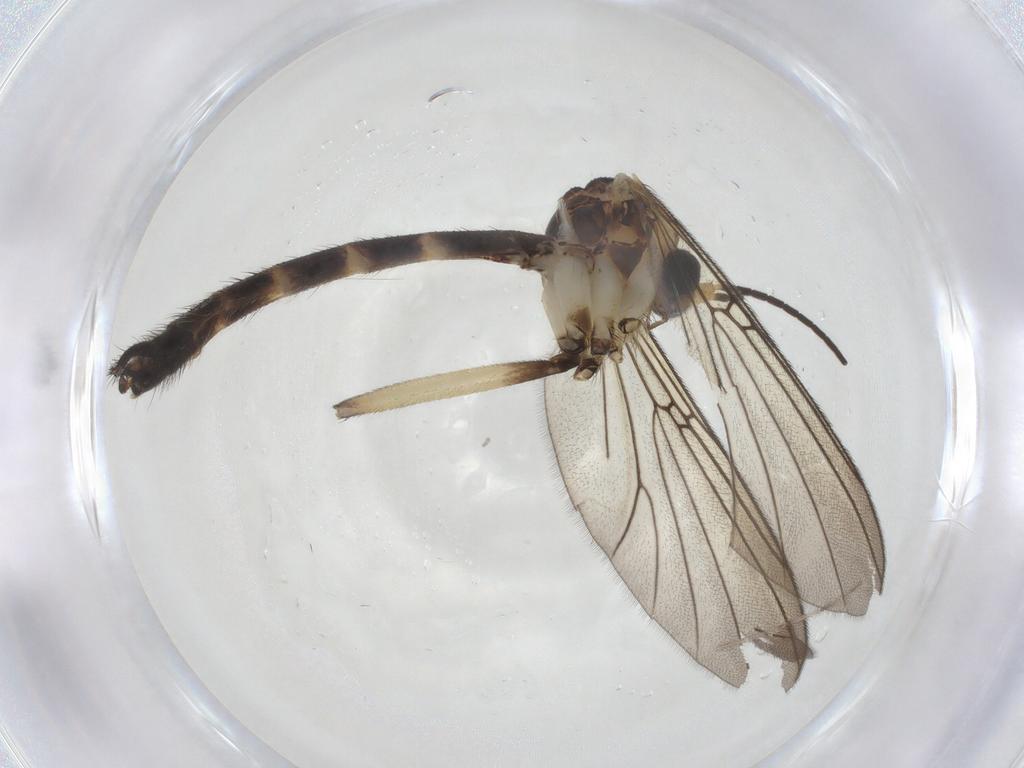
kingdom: Animalia
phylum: Arthropoda
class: Insecta
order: Diptera
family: Mycetophilidae
